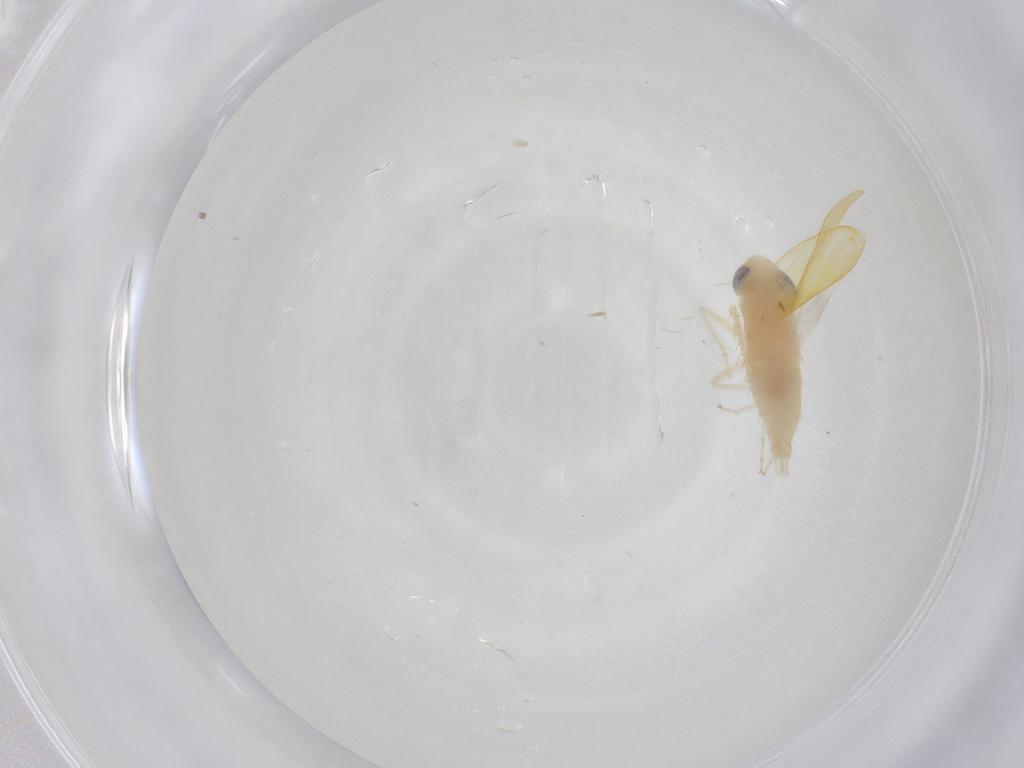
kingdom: Animalia
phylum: Arthropoda
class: Insecta
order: Hemiptera
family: Cicadellidae
